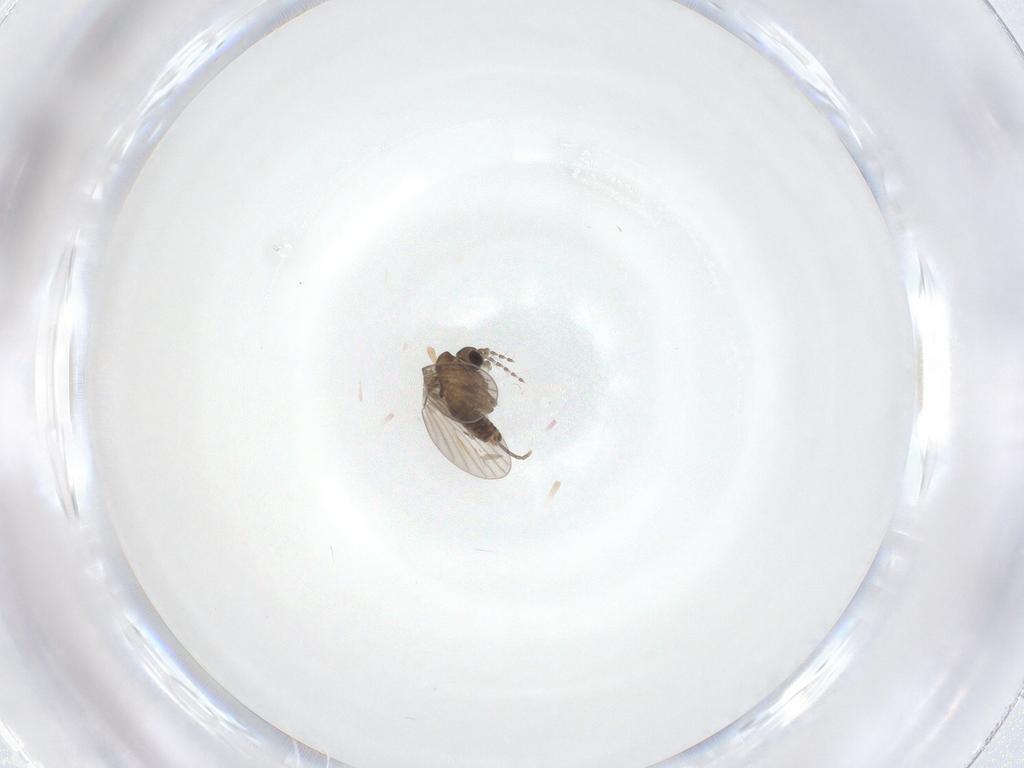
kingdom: Animalia
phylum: Arthropoda
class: Insecta
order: Diptera
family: Psychodidae
